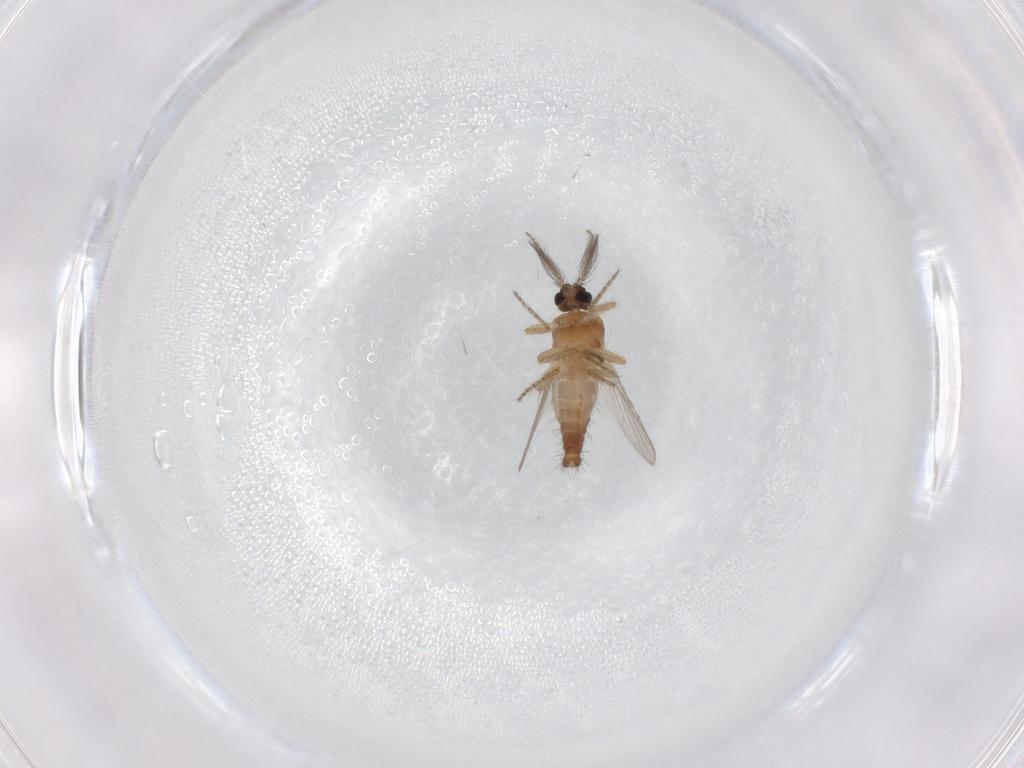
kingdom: Animalia
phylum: Arthropoda
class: Insecta
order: Diptera
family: Ceratopogonidae
